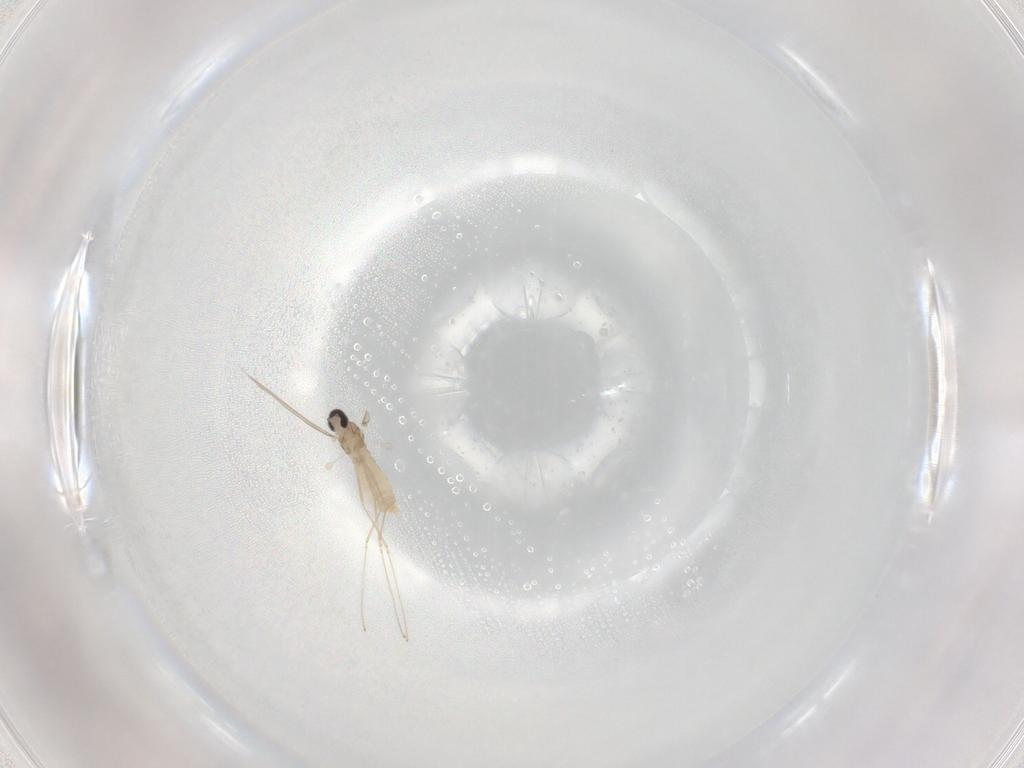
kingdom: Animalia
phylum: Arthropoda
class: Insecta
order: Diptera
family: Cecidomyiidae
